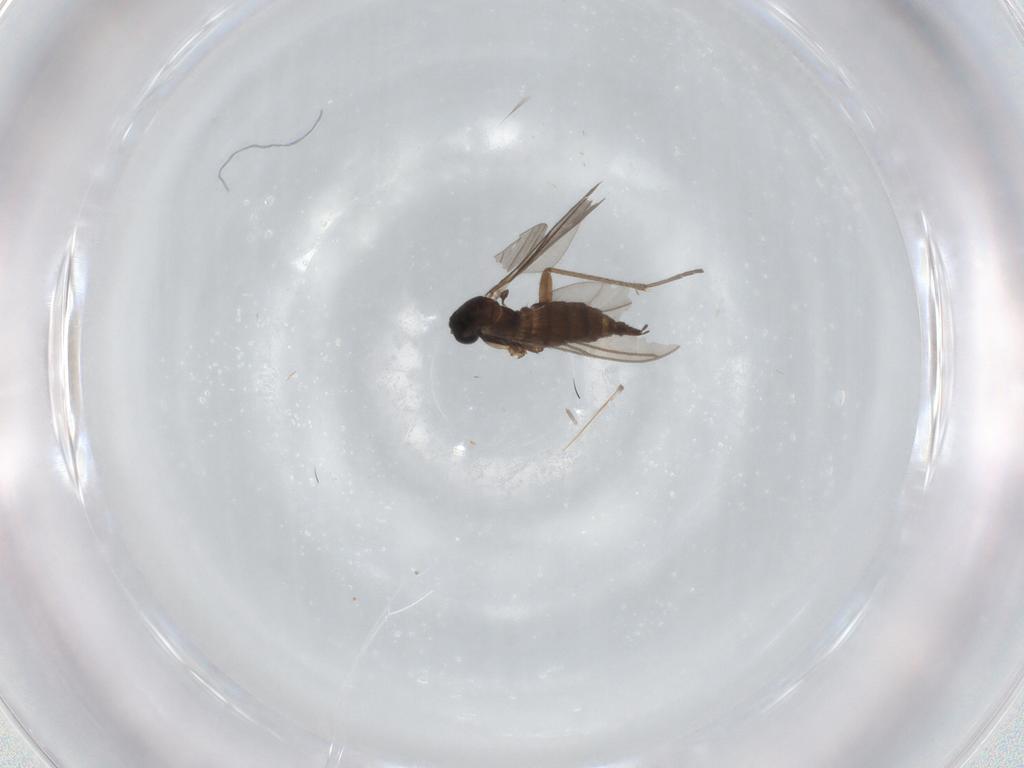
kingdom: Animalia
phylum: Arthropoda
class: Insecta
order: Diptera
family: Sciaridae
